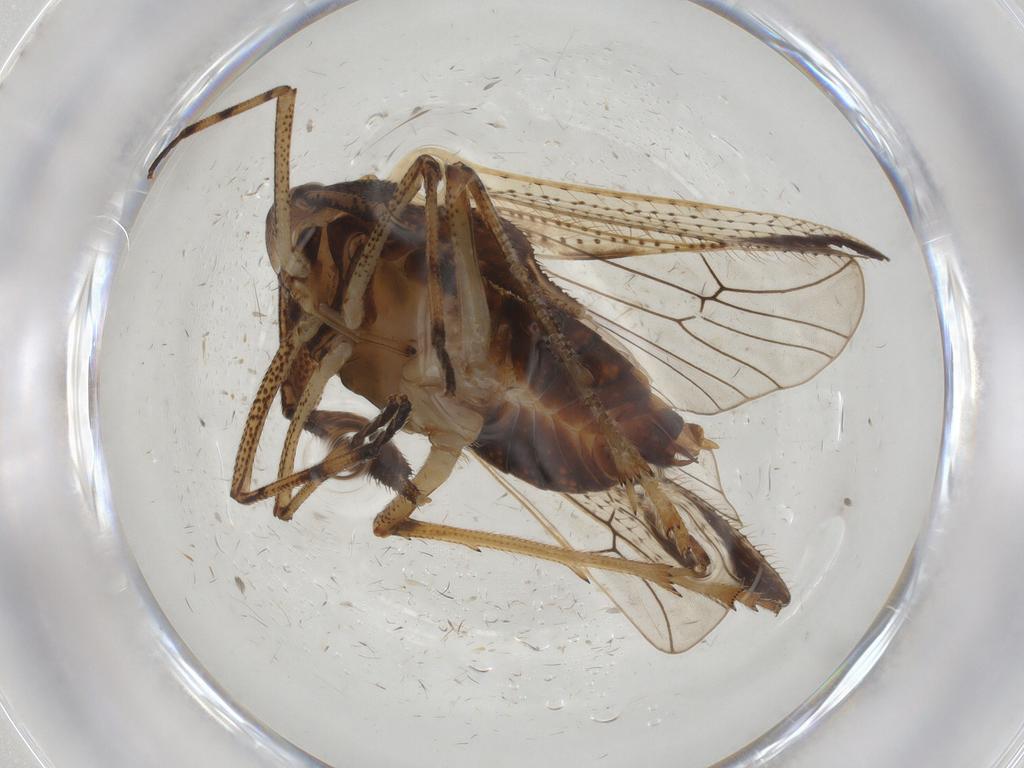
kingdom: Animalia
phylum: Arthropoda
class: Insecta
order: Hemiptera
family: Delphacidae
